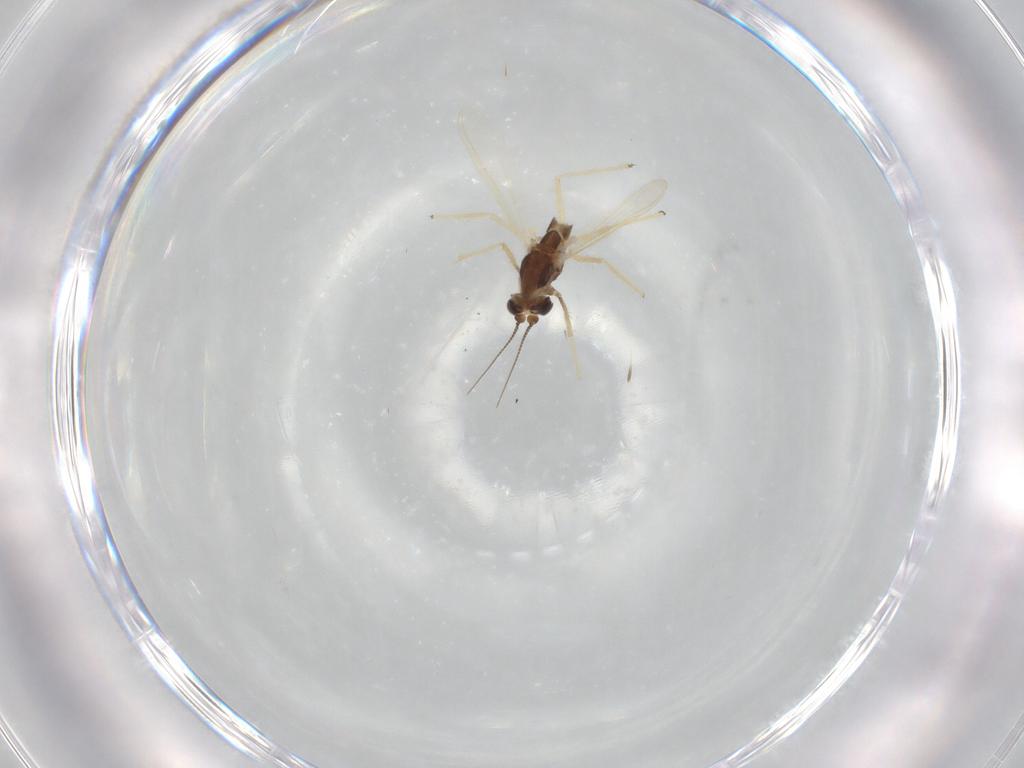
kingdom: Animalia
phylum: Arthropoda
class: Insecta
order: Diptera
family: Chironomidae
